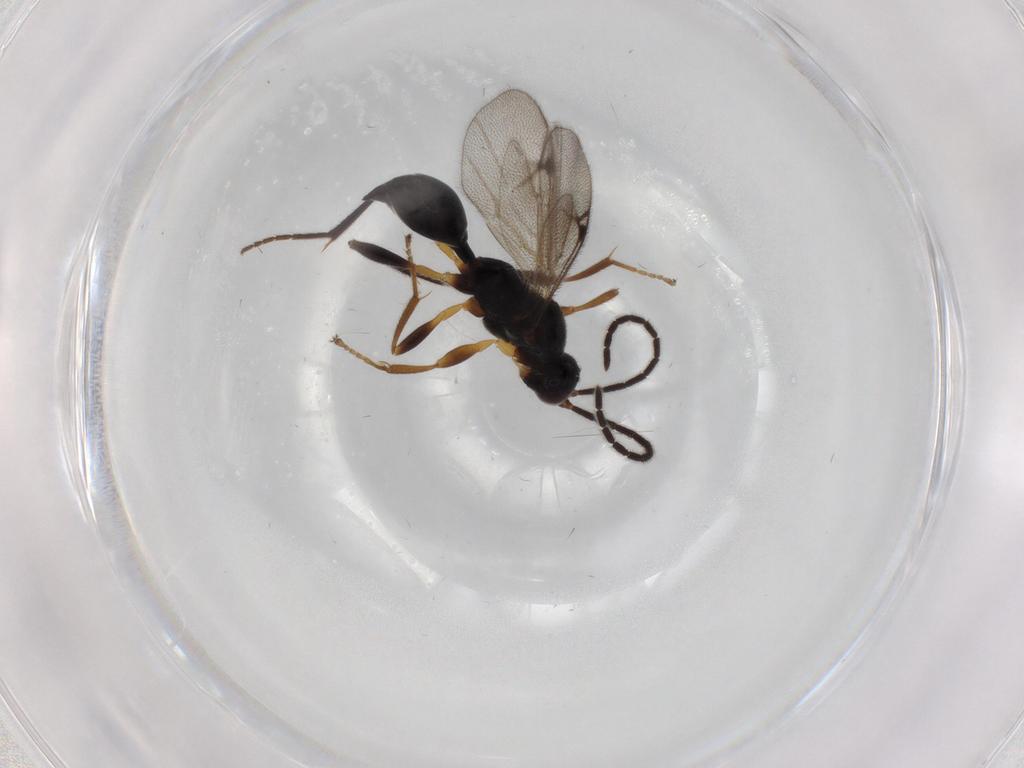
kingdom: Animalia
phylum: Arthropoda
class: Insecta
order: Hymenoptera
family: Proctotrupidae
